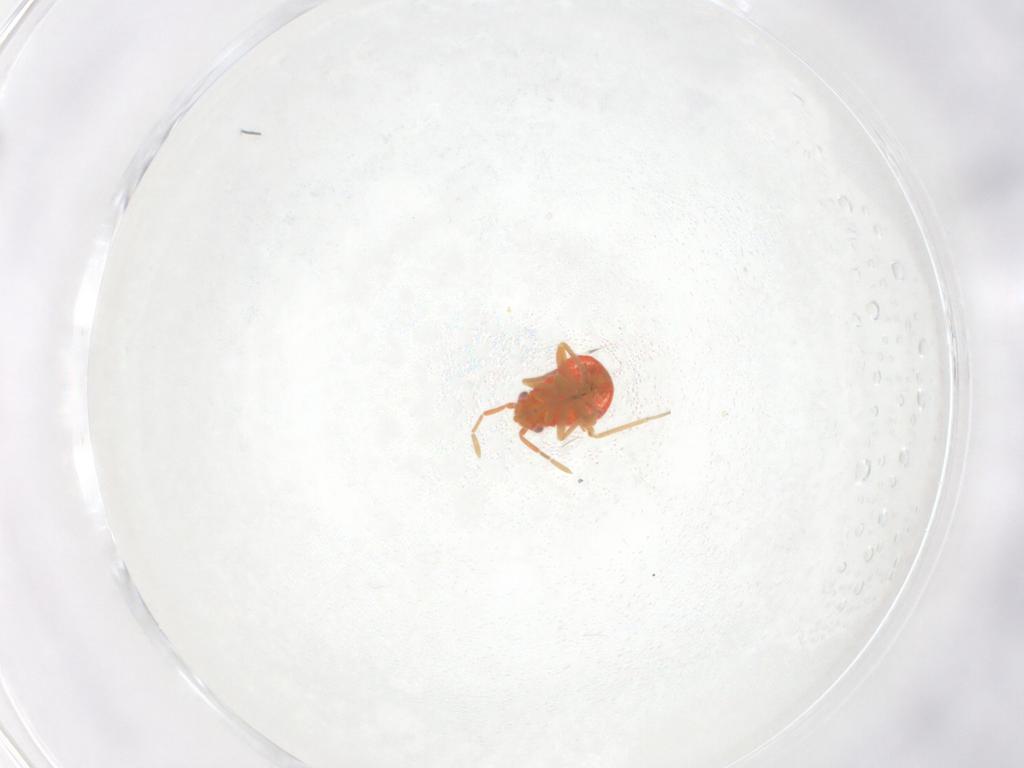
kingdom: Animalia
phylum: Arthropoda
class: Insecta
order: Hemiptera
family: Miridae
